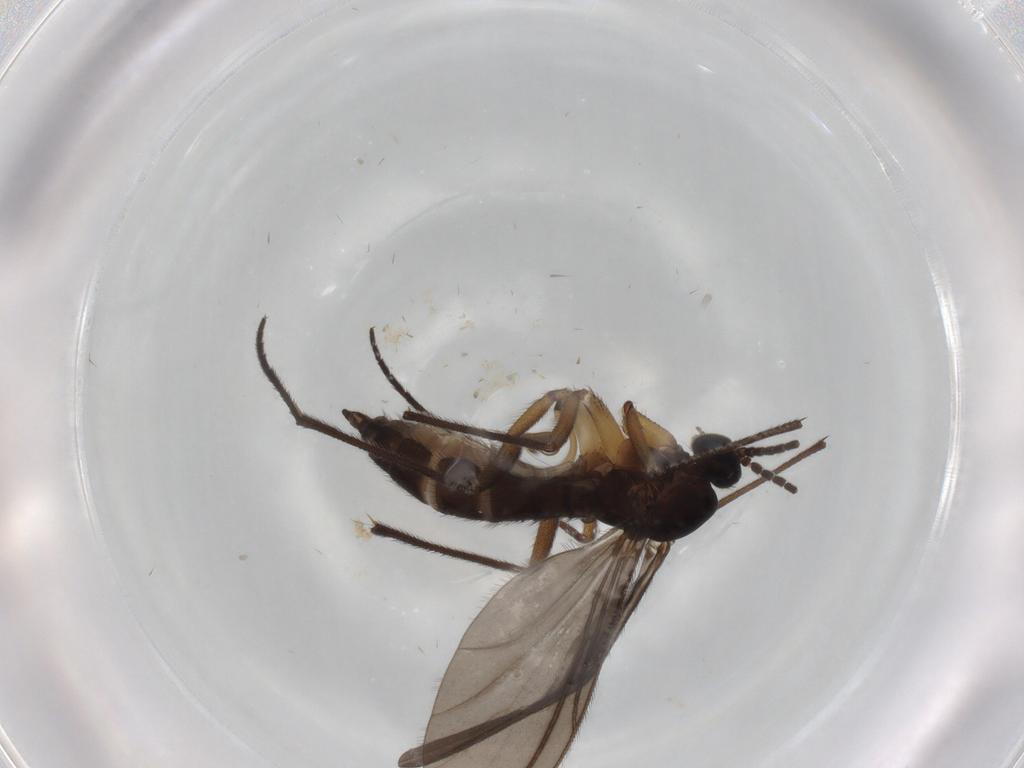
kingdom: Animalia
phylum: Arthropoda
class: Insecta
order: Diptera
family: Sciaridae
